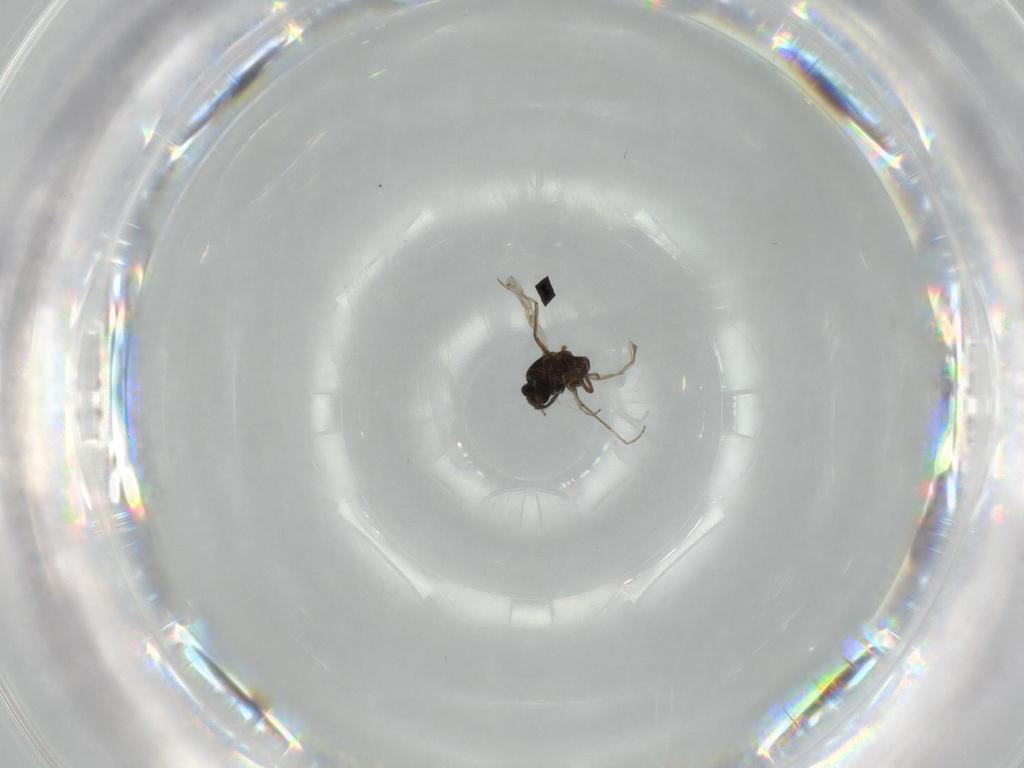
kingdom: Animalia
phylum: Arthropoda
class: Insecta
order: Diptera
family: Ceratopogonidae
